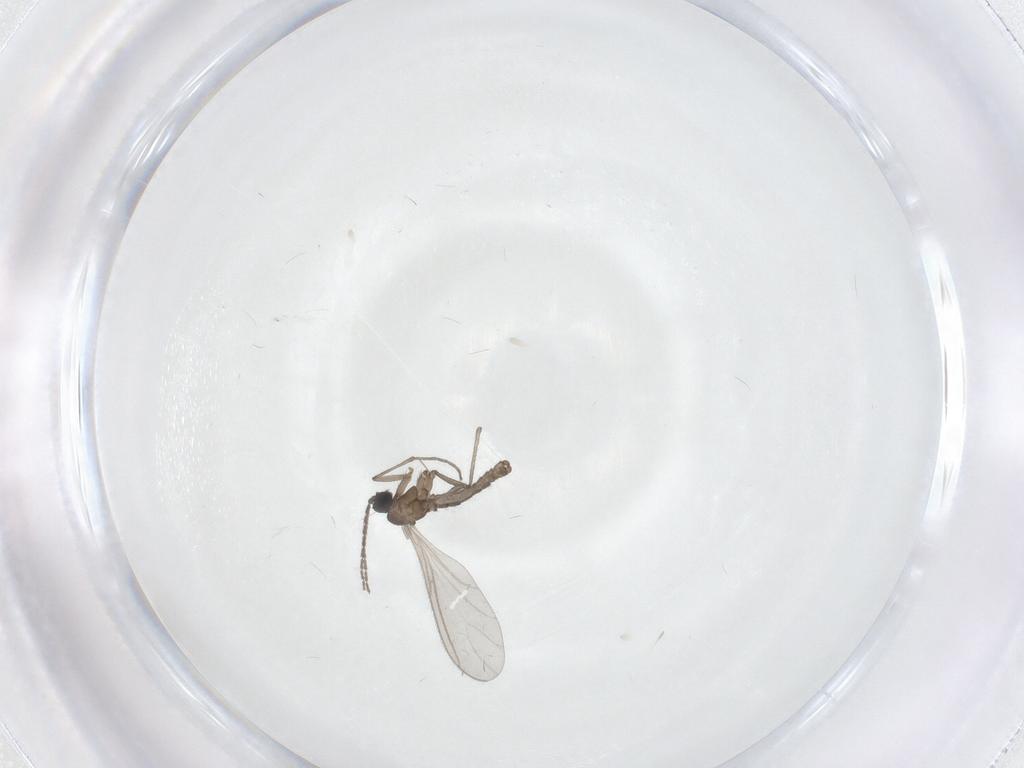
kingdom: Animalia
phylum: Arthropoda
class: Insecta
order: Diptera
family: Sciaridae
